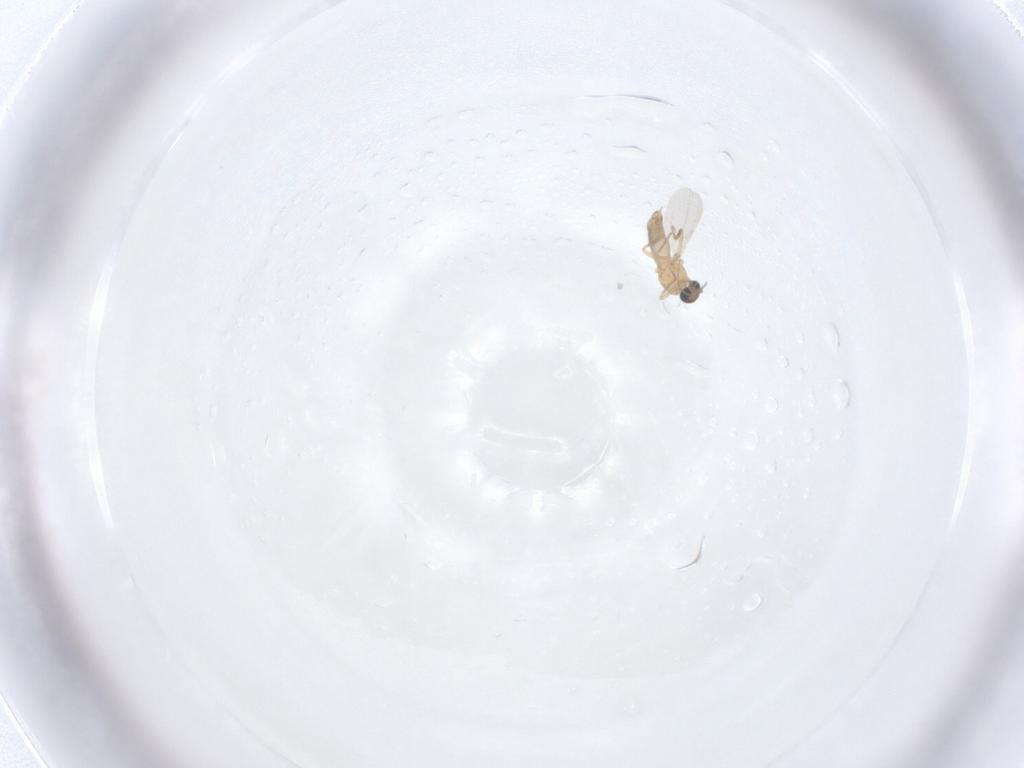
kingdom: Animalia
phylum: Arthropoda
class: Insecta
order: Diptera
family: Ceratopogonidae
